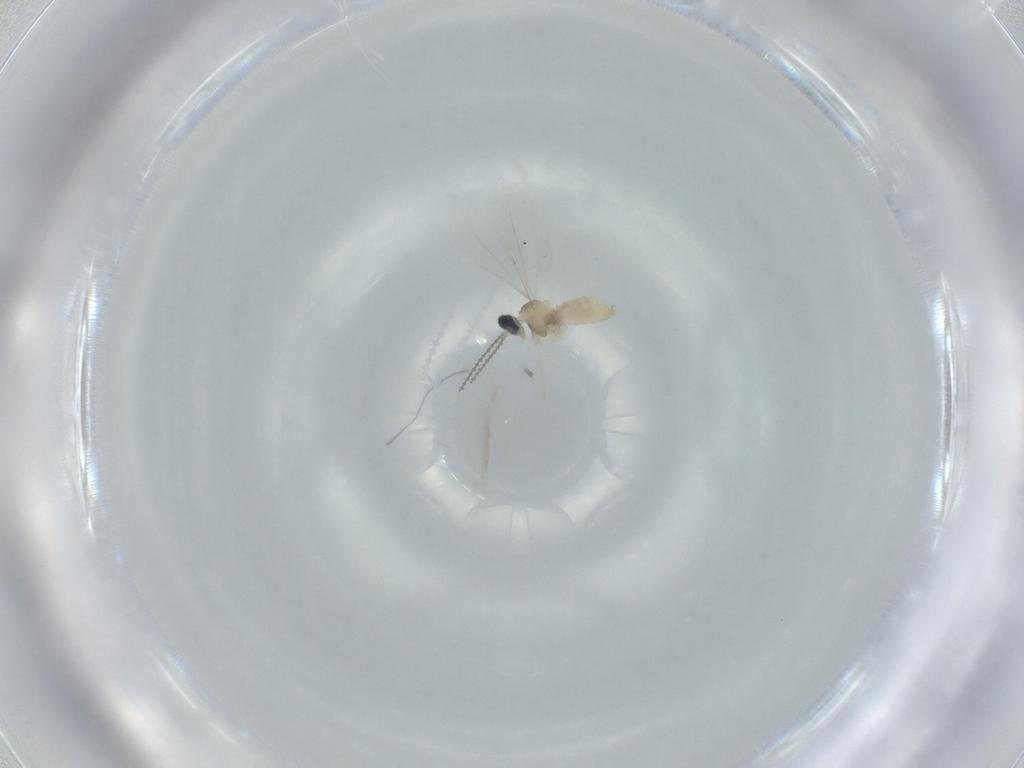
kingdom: Animalia
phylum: Arthropoda
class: Insecta
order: Diptera
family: Cecidomyiidae
